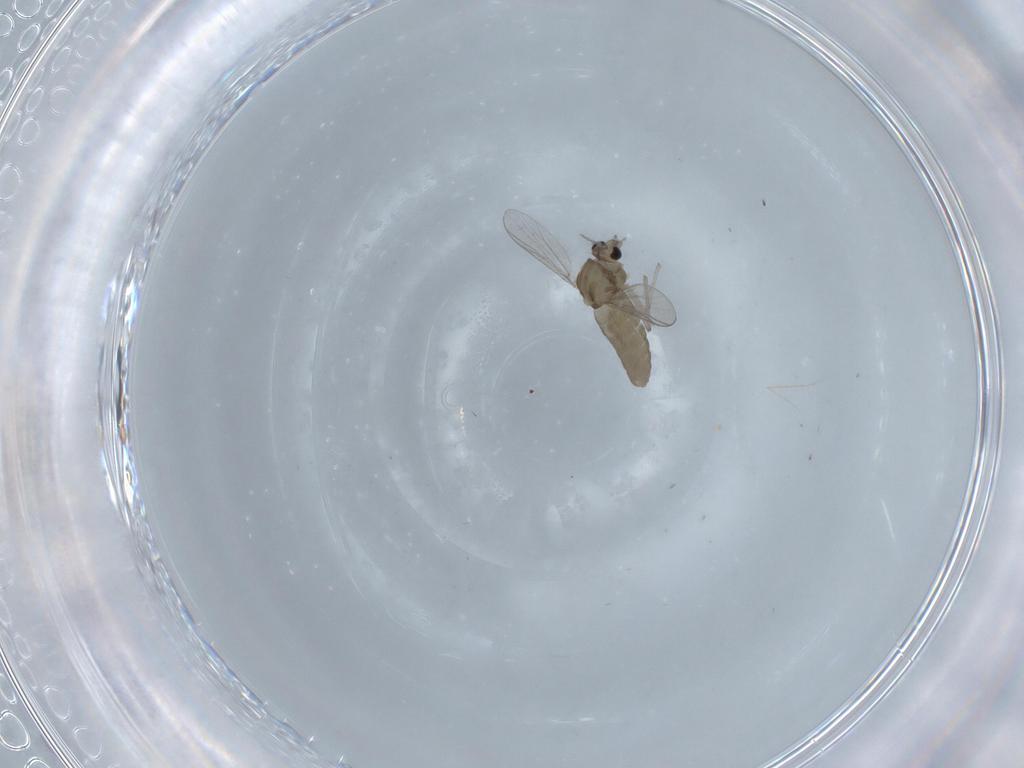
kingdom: Animalia
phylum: Arthropoda
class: Insecta
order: Diptera
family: Chironomidae
